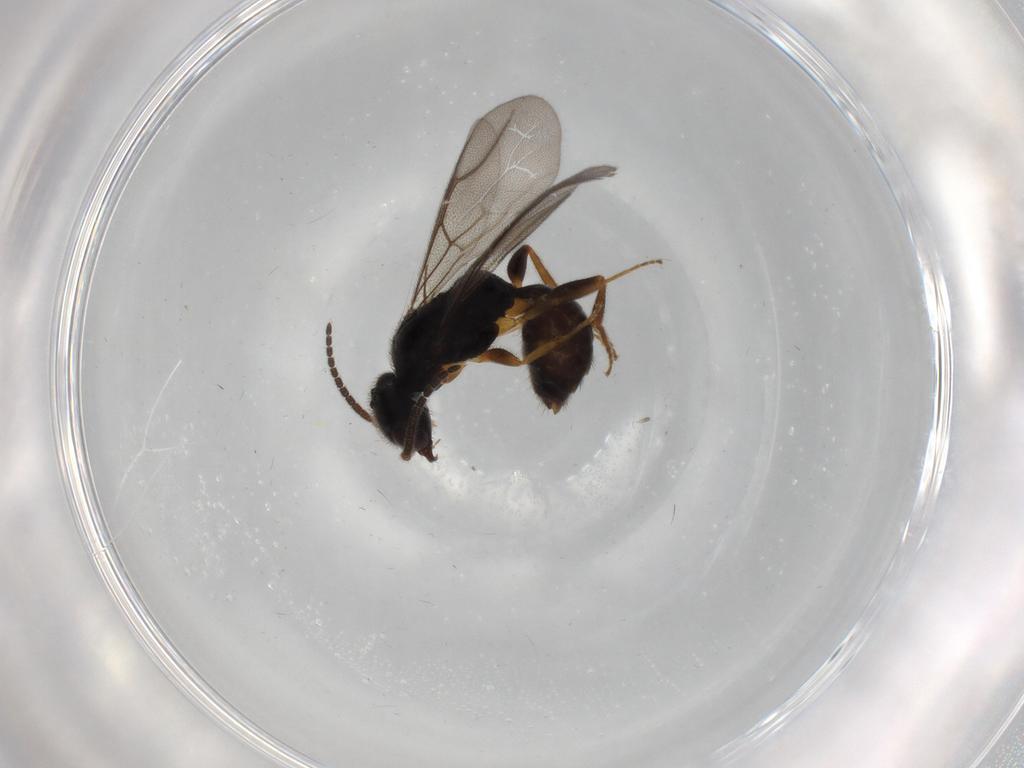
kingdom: Animalia
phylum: Arthropoda
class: Insecta
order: Hymenoptera
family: Bethylidae
